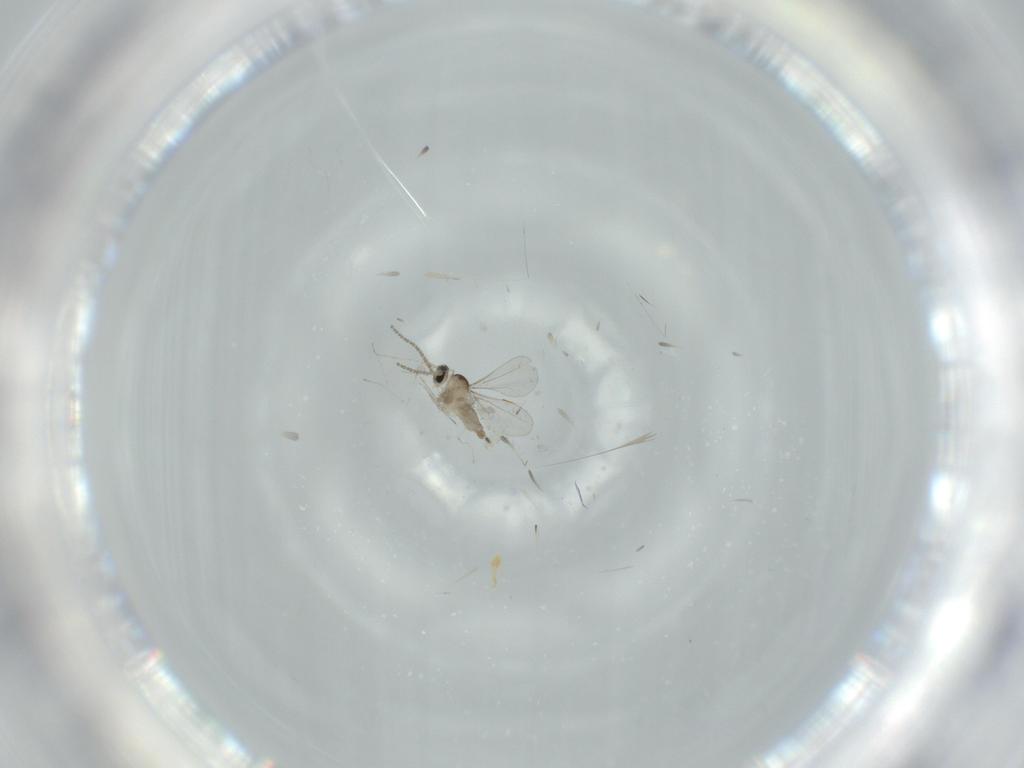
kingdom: Animalia
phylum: Arthropoda
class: Insecta
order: Diptera
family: Cecidomyiidae
